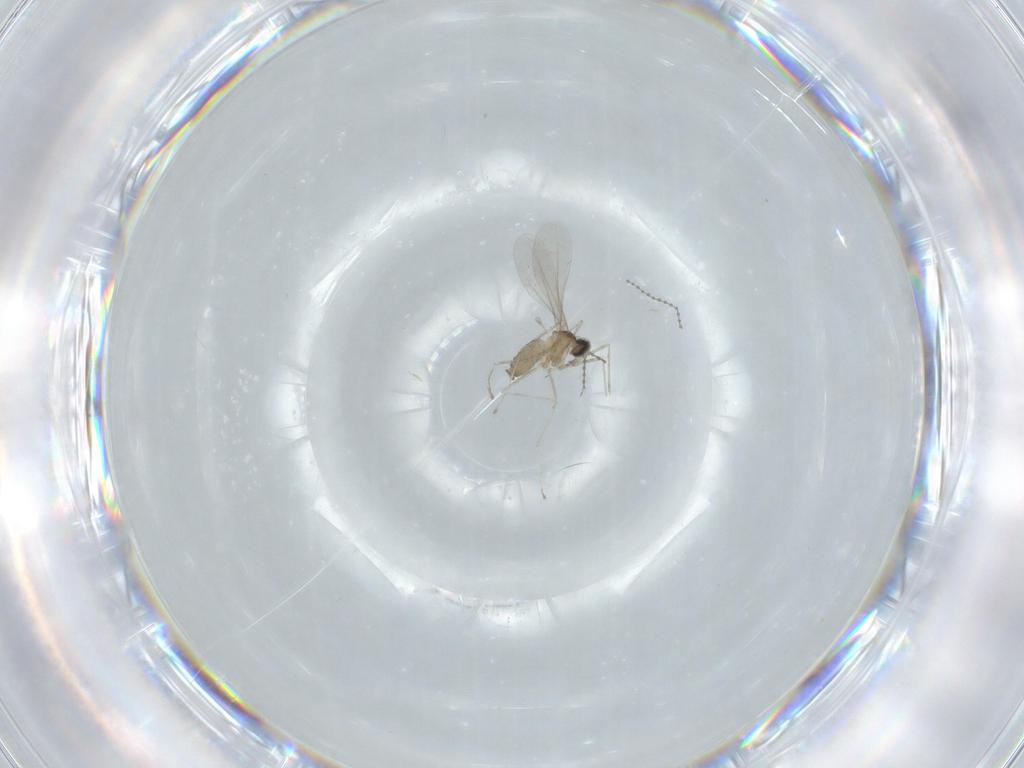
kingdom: Animalia
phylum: Arthropoda
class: Insecta
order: Diptera
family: Cecidomyiidae
